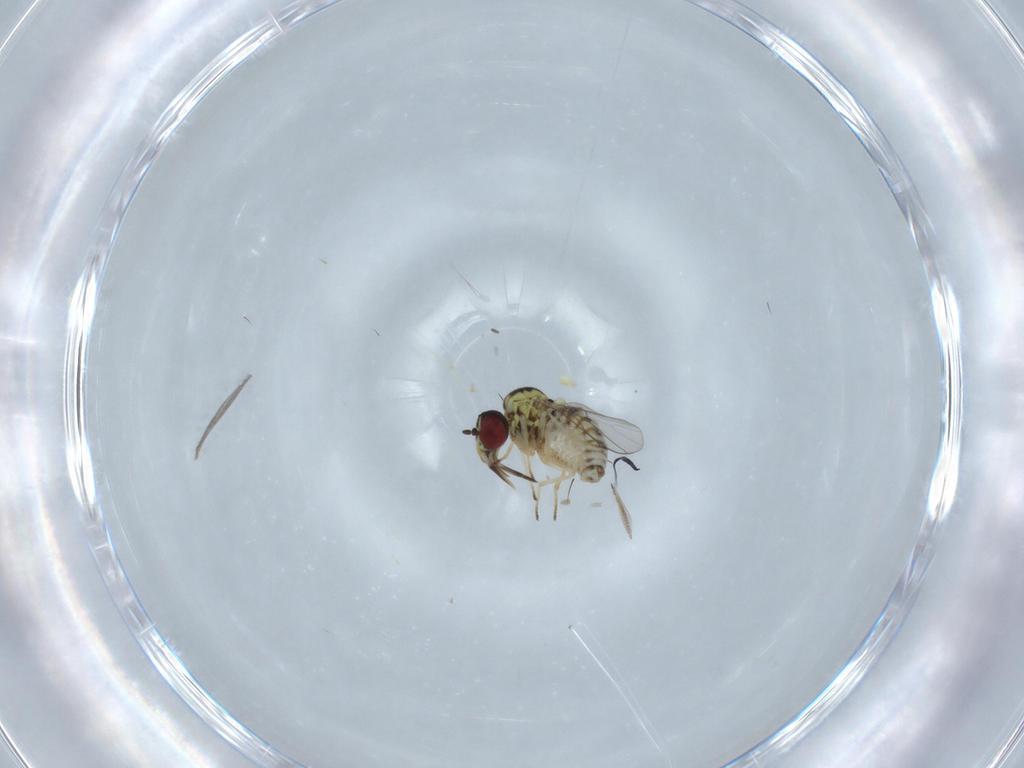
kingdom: Animalia
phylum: Arthropoda
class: Insecta
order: Diptera
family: Bombyliidae
